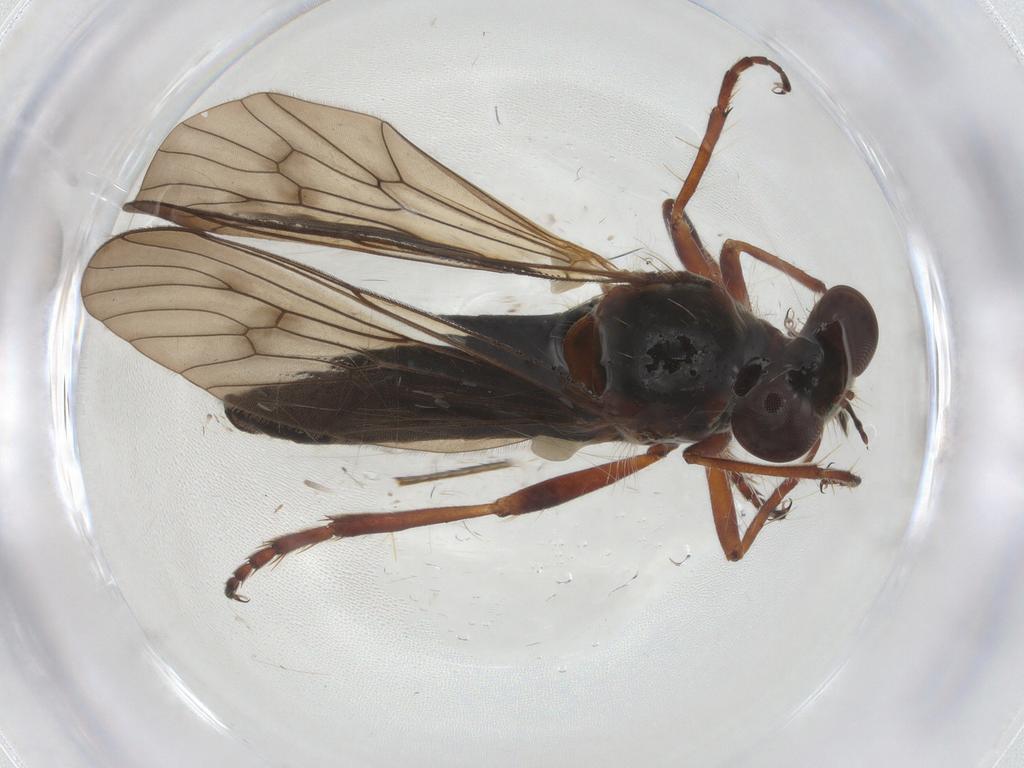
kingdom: Animalia
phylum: Arthropoda
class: Insecta
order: Diptera
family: Asilidae
